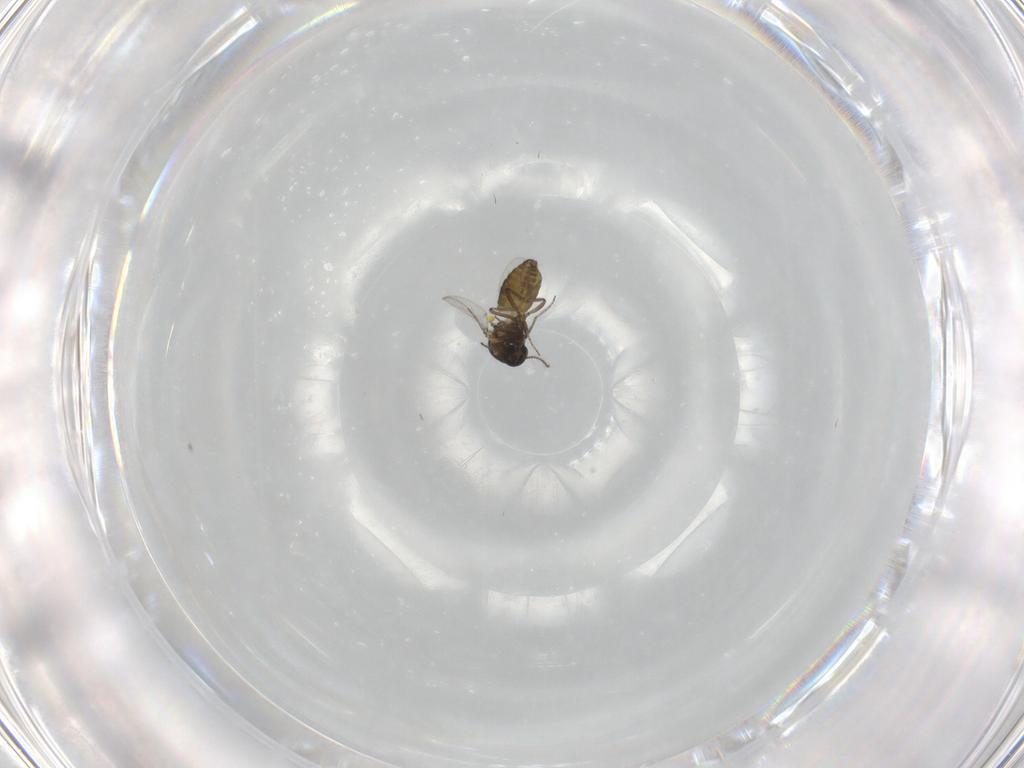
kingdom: Animalia
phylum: Arthropoda
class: Insecta
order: Diptera
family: Ceratopogonidae
